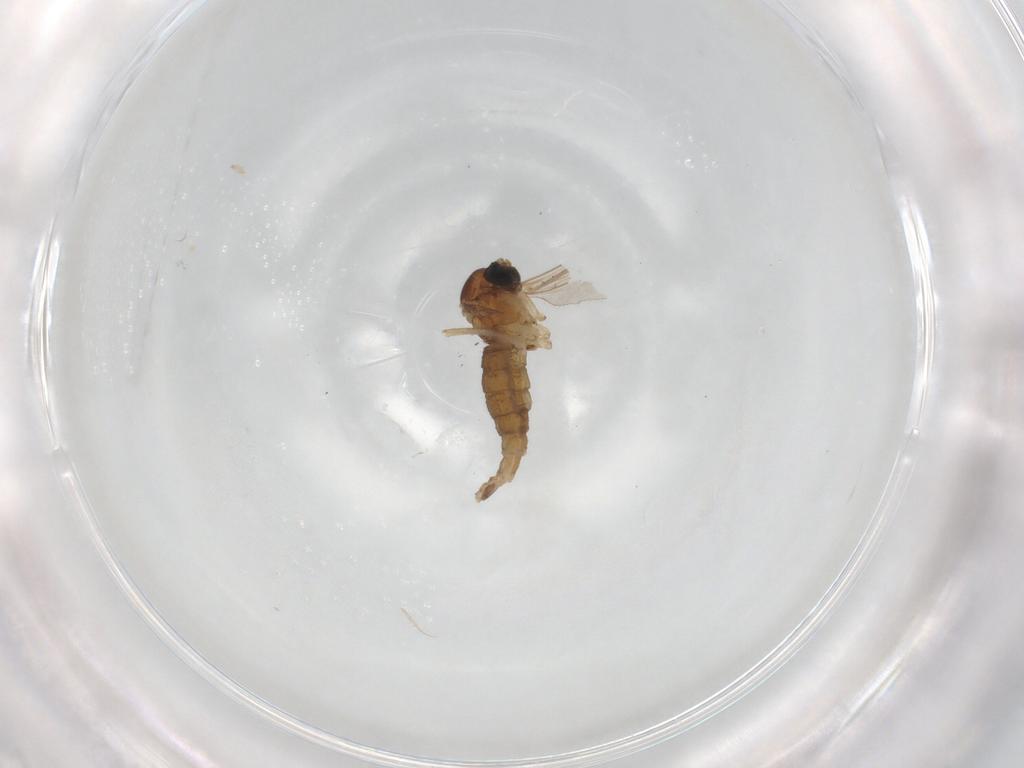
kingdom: Animalia
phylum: Arthropoda
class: Insecta
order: Diptera
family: Sciaridae
